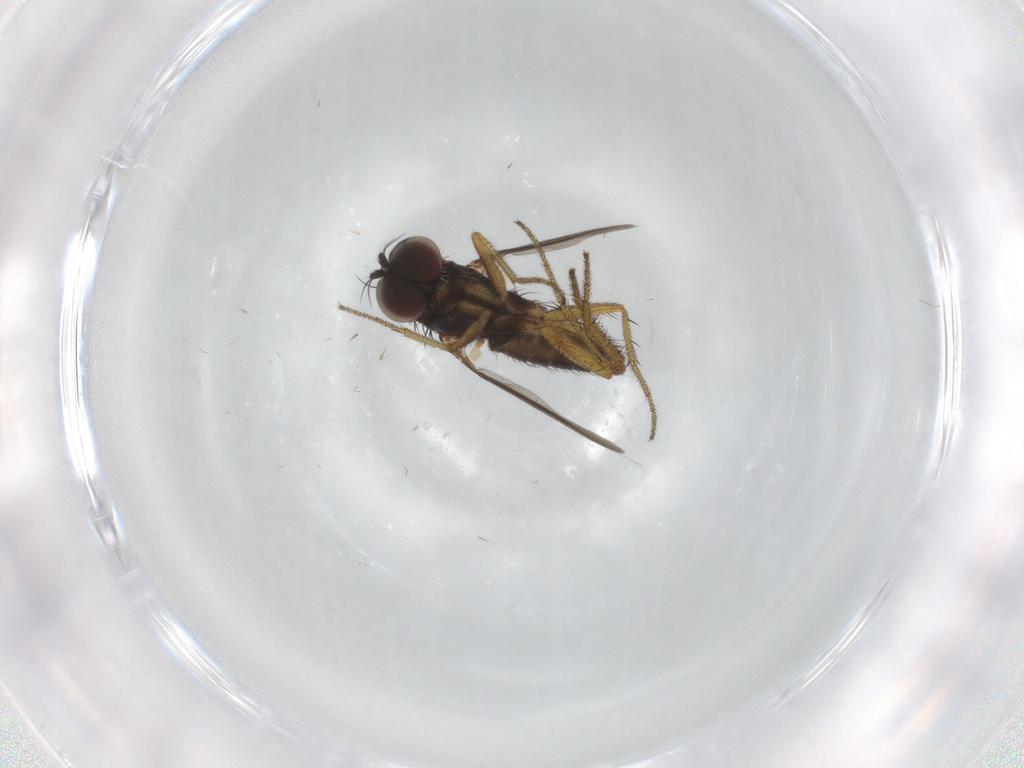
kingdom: Animalia
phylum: Arthropoda
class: Insecta
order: Diptera
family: Dolichopodidae
